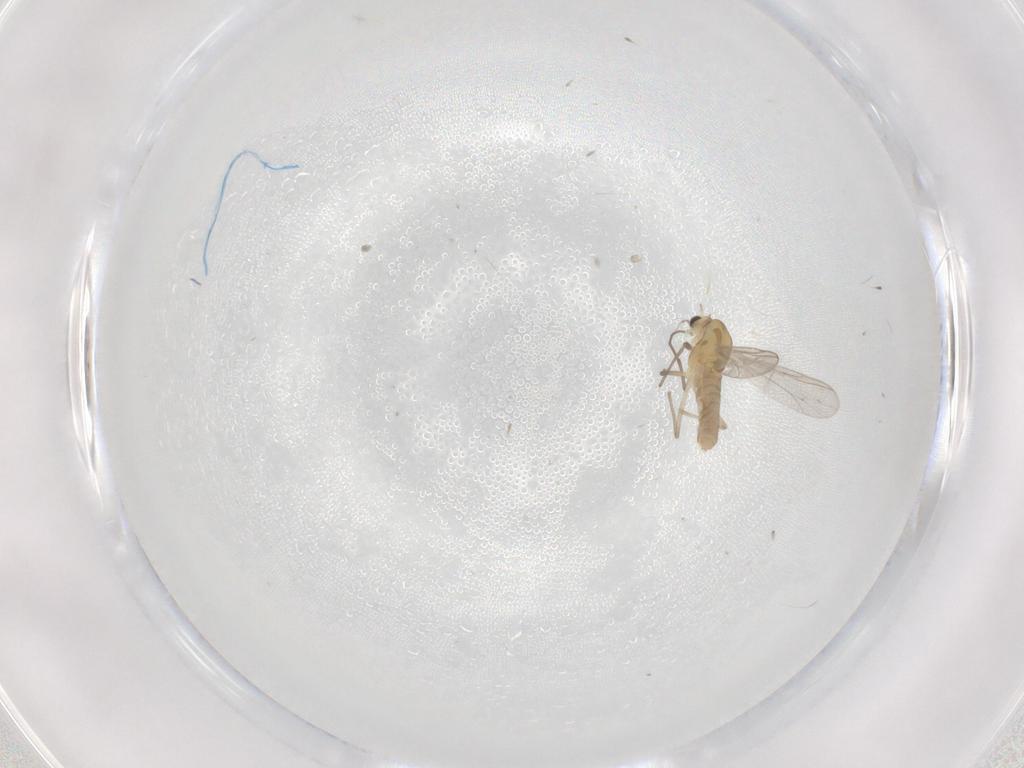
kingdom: Animalia
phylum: Arthropoda
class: Insecta
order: Diptera
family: Chironomidae
